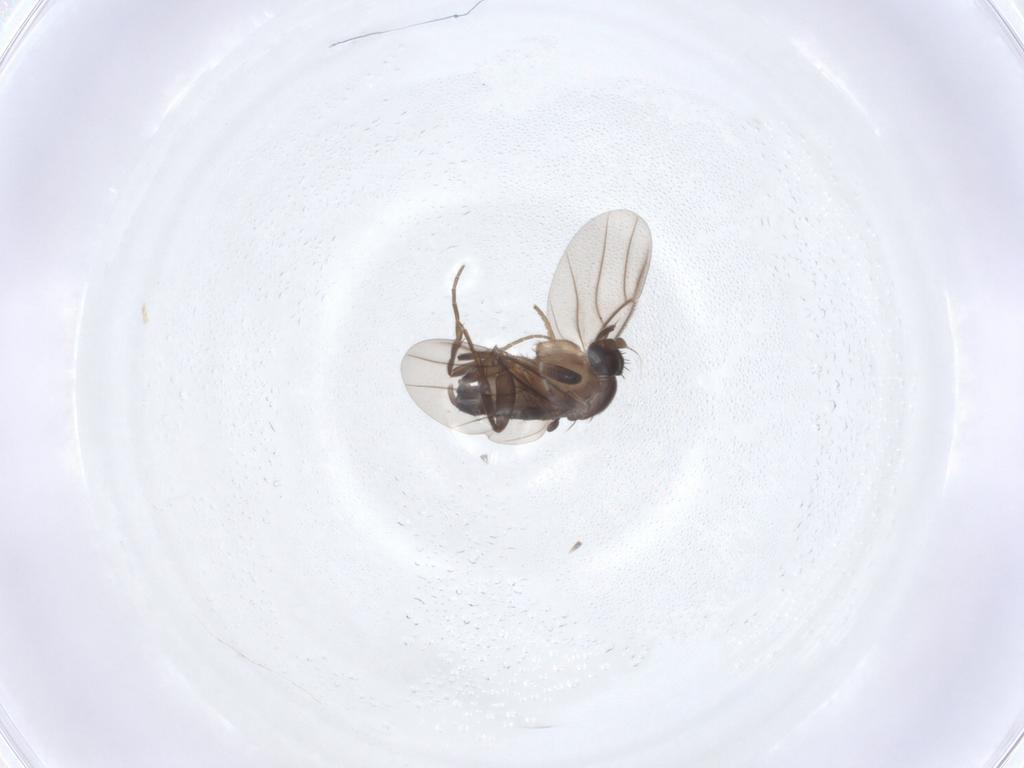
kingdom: Animalia
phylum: Arthropoda
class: Insecta
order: Diptera
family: Phoridae
